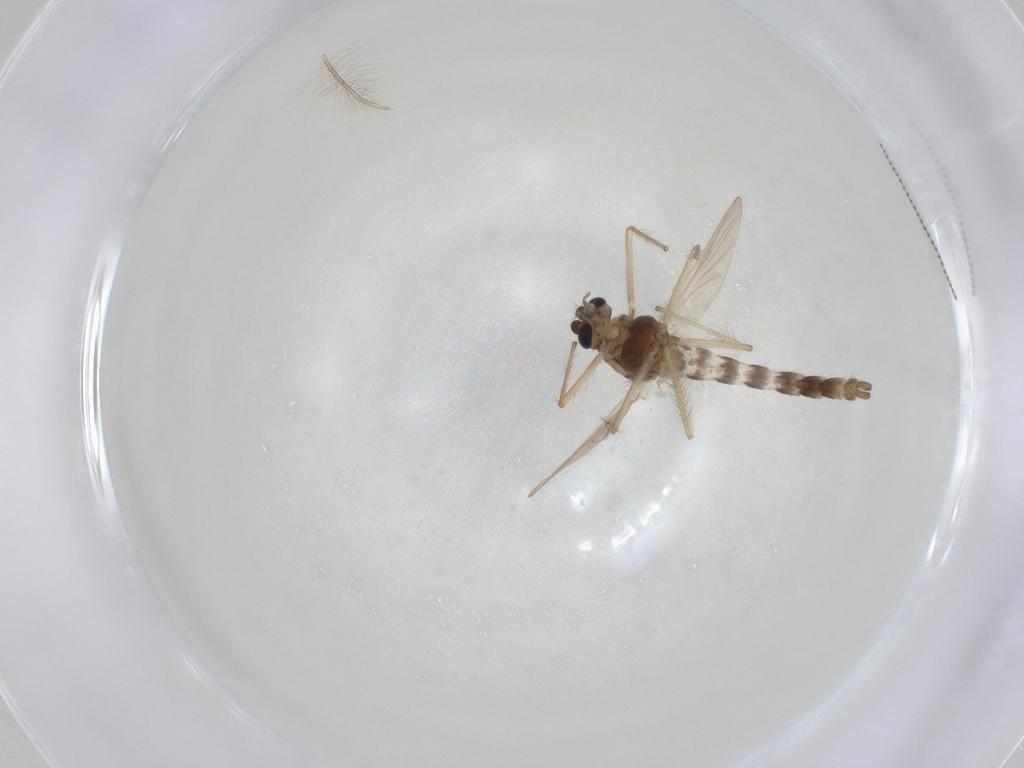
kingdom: Animalia
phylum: Arthropoda
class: Insecta
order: Diptera
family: Chironomidae
